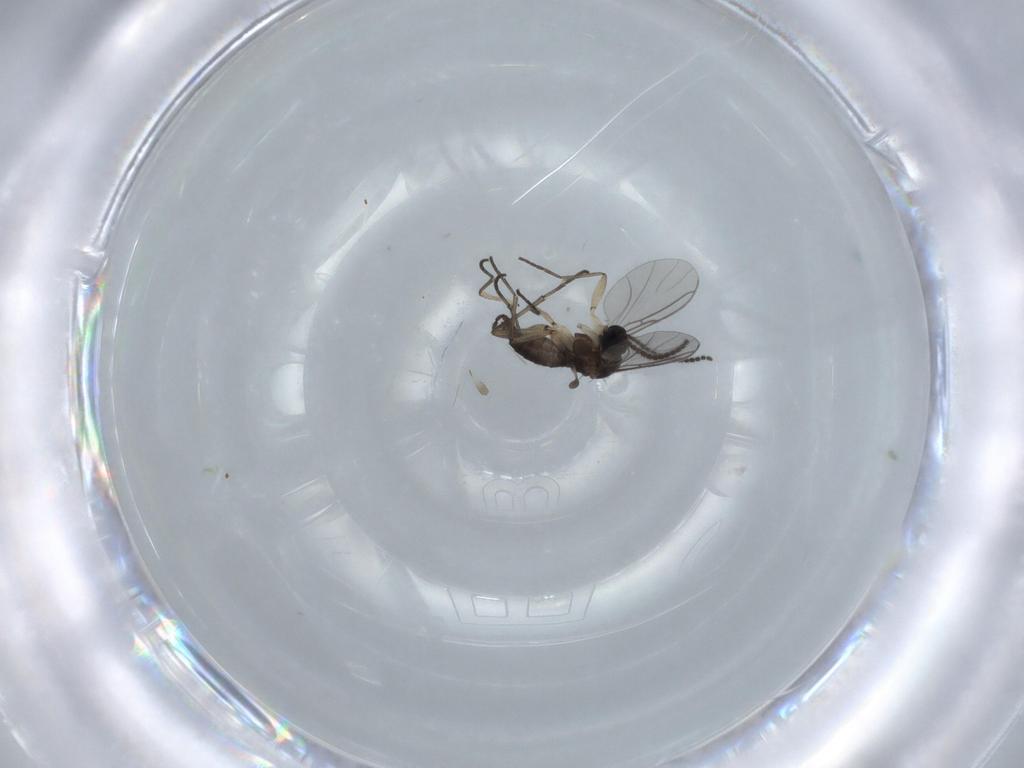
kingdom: Animalia
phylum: Arthropoda
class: Insecta
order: Diptera
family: Sciaridae
